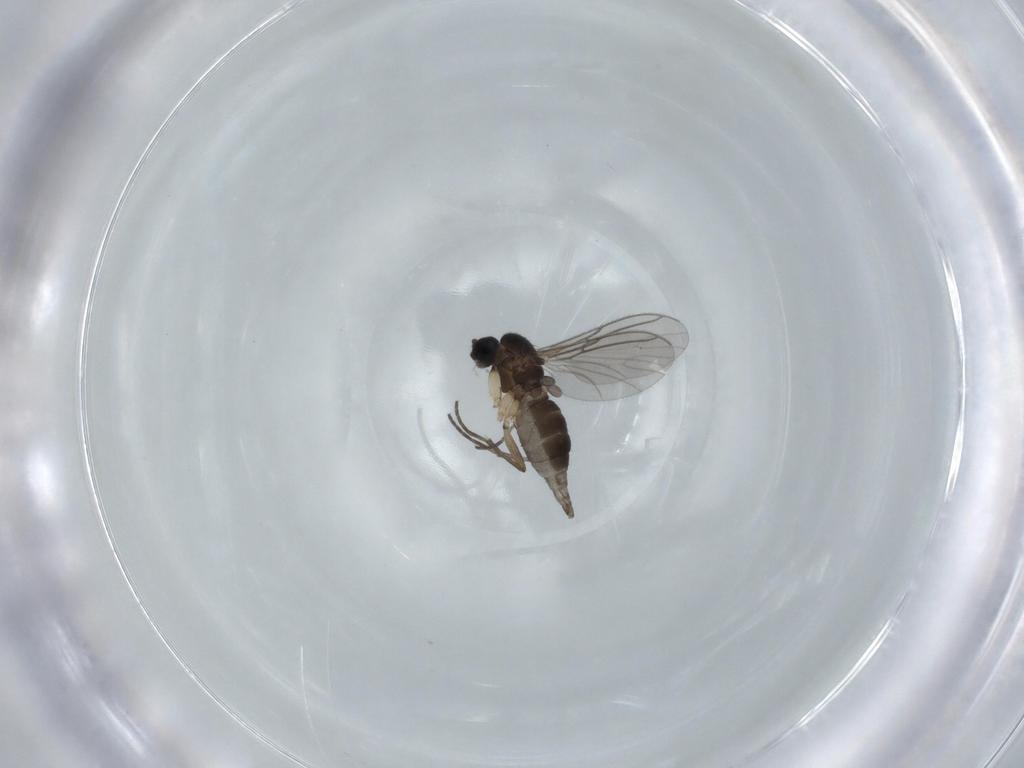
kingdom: Animalia
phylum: Arthropoda
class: Insecta
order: Diptera
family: Sciaridae
